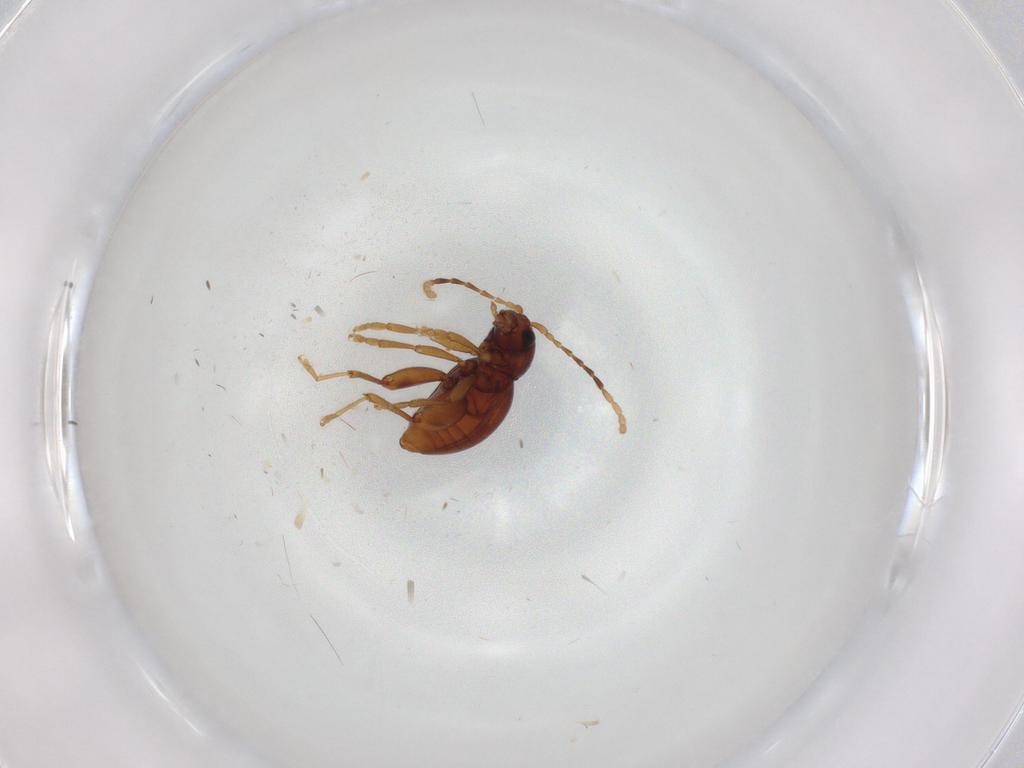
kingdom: Animalia
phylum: Arthropoda
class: Insecta
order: Coleoptera
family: Chrysomelidae
